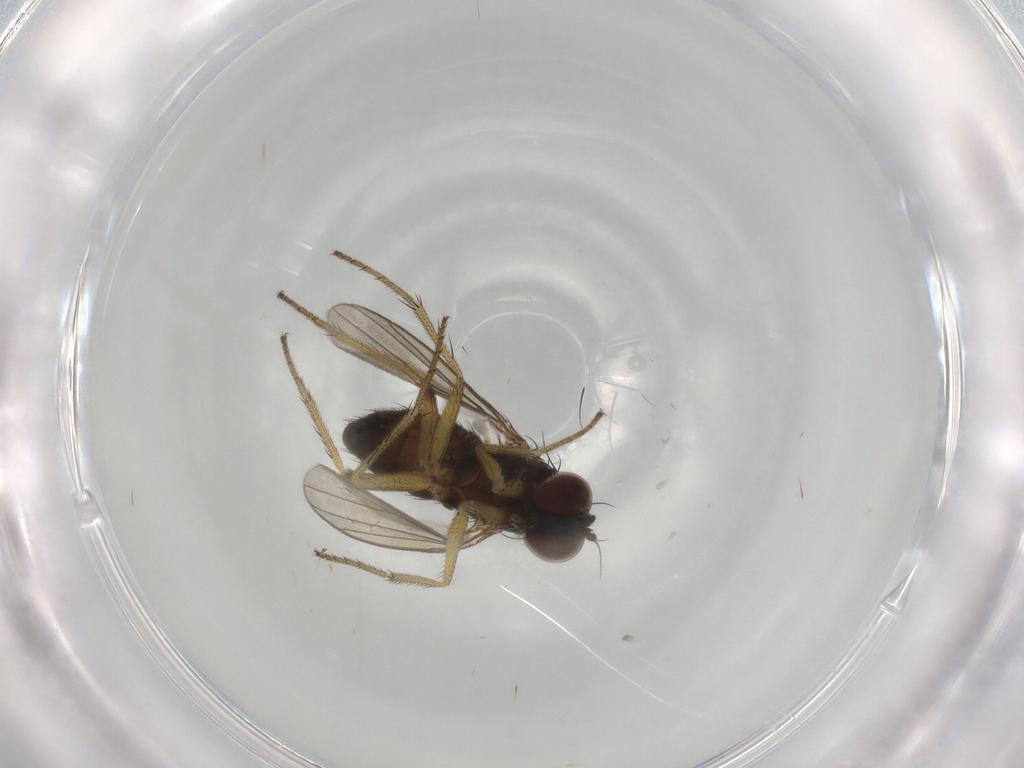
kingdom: Animalia
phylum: Arthropoda
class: Insecta
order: Diptera
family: Dolichopodidae
